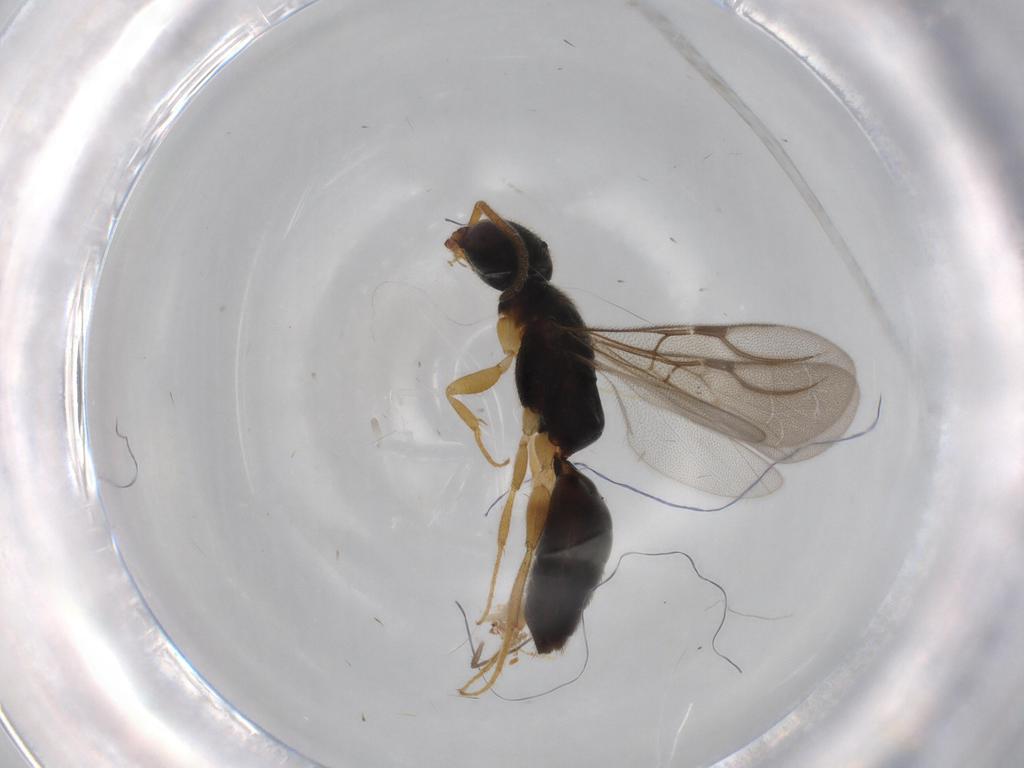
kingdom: Animalia
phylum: Arthropoda
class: Insecta
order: Hymenoptera
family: Bethylidae
